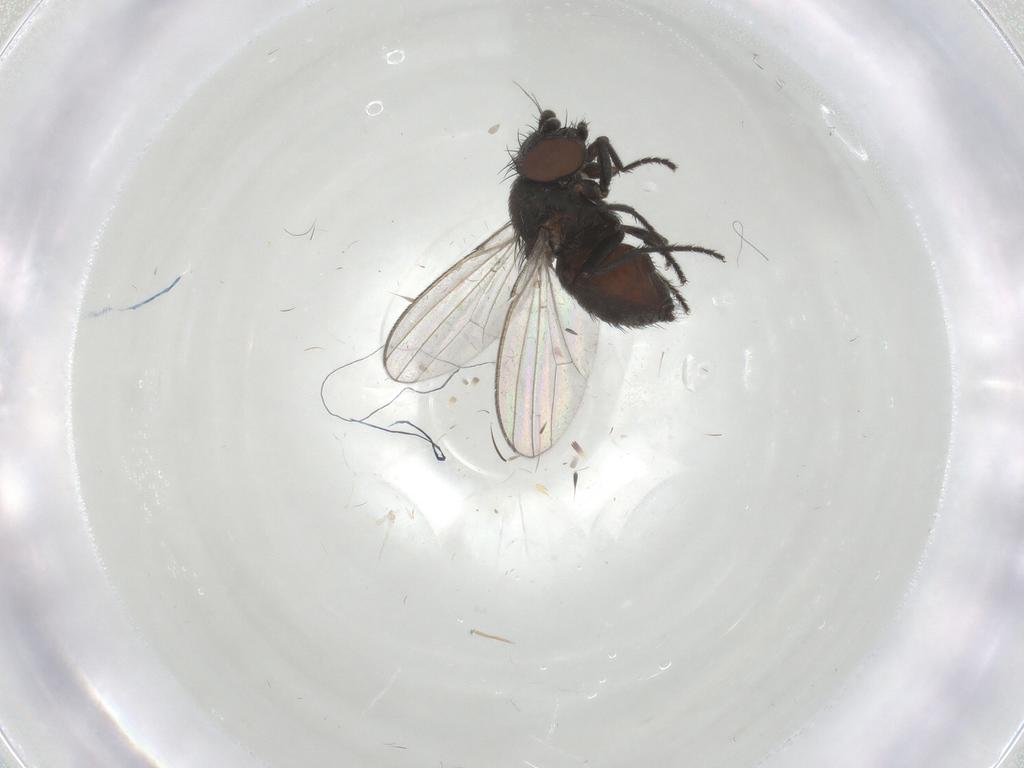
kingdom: Animalia
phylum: Arthropoda
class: Insecta
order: Diptera
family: Milichiidae
